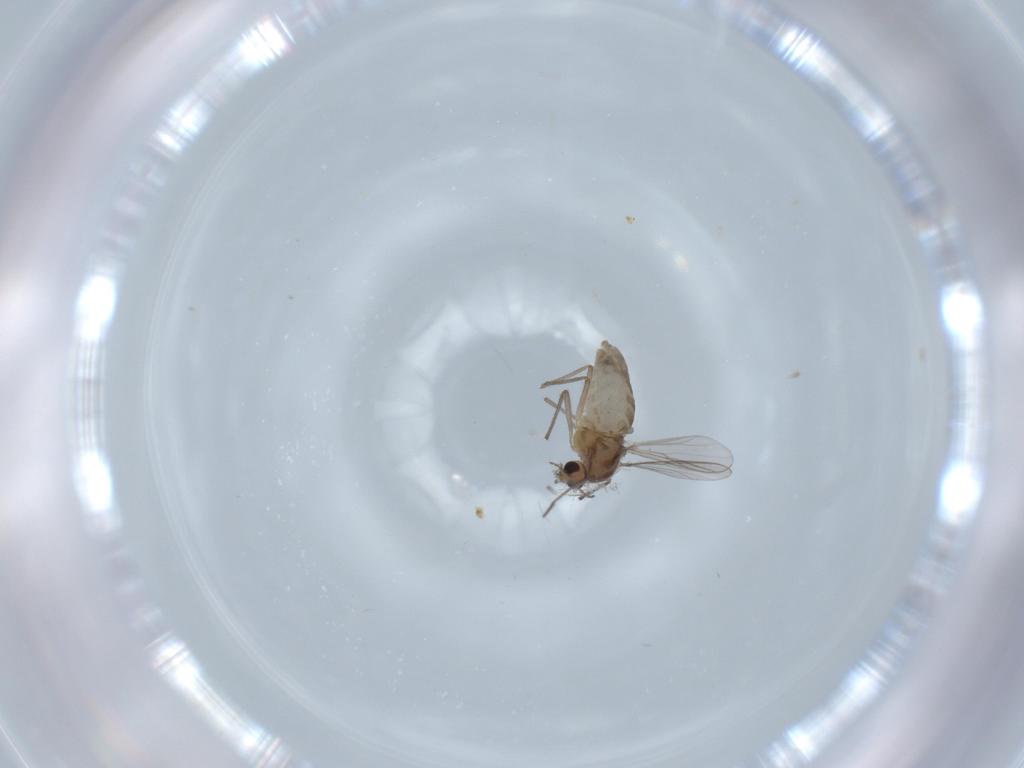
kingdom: Animalia
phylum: Arthropoda
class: Insecta
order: Diptera
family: Chironomidae
